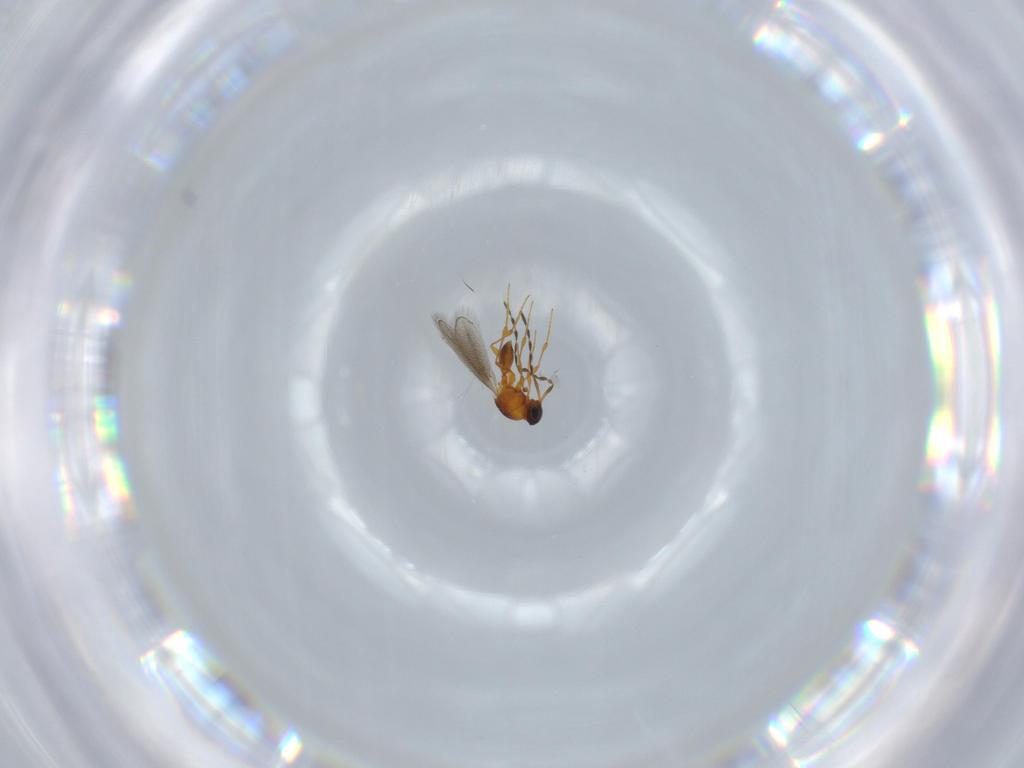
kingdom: Animalia
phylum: Arthropoda
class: Insecta
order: Hymenoptera
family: Platygastridae
